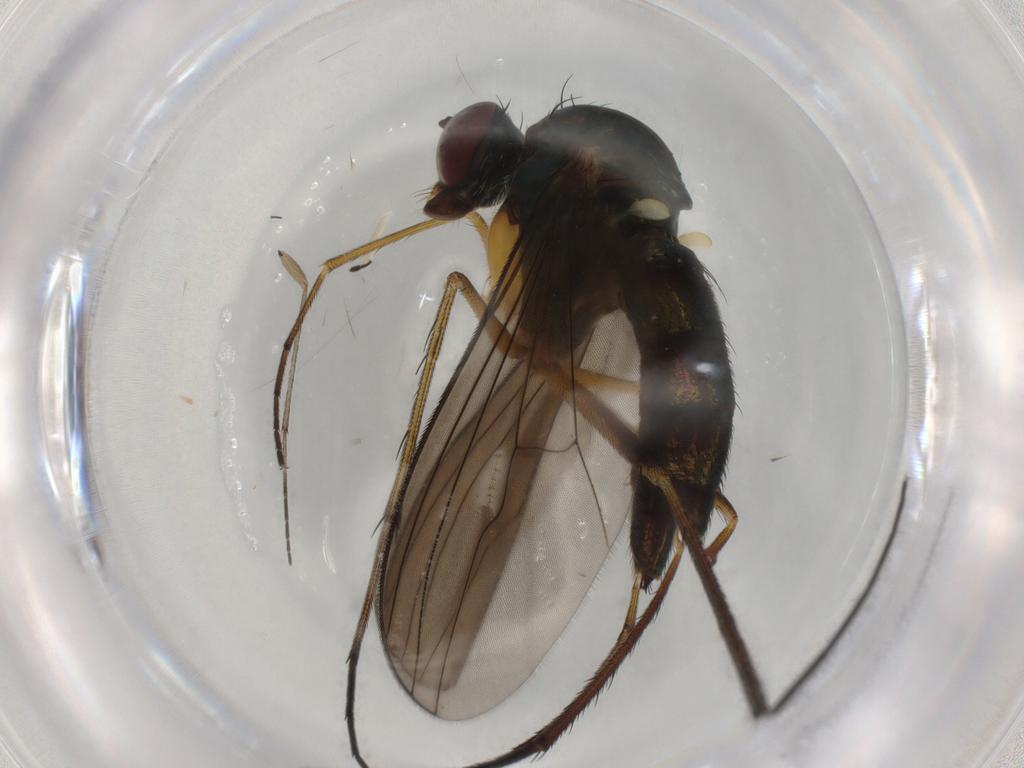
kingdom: Animalia
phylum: Arthropoda
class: Insecta
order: Diptera
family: Dolichopodidae
